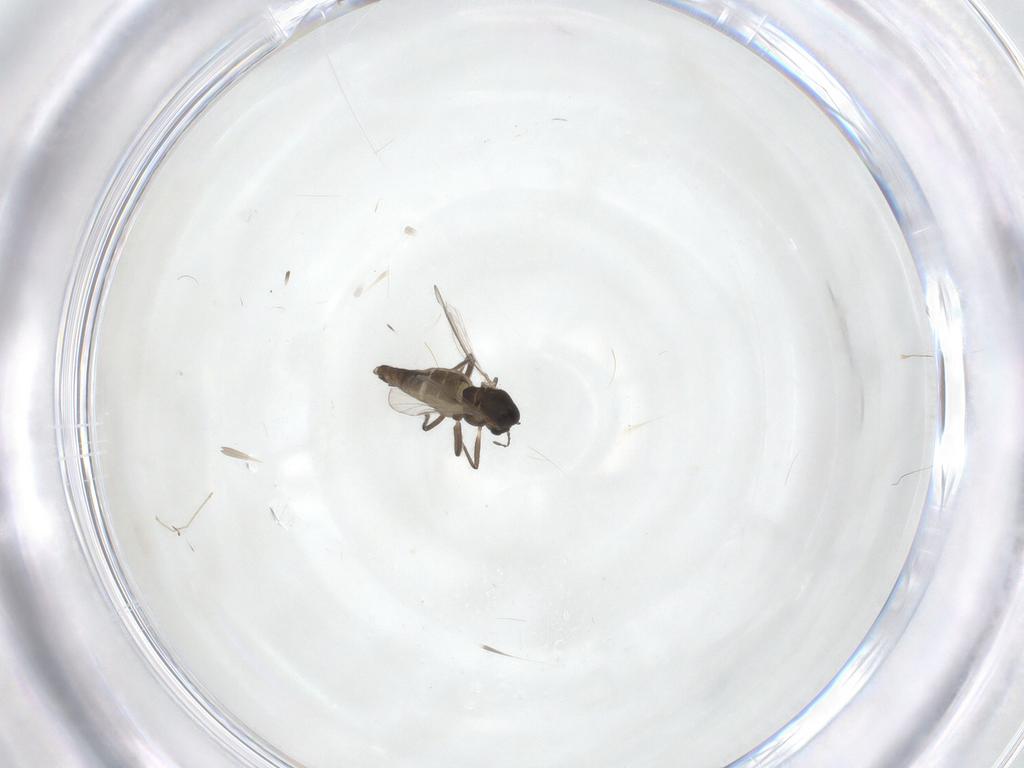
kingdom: Animalia
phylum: Arthropoda
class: Insecta
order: Diptera
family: Chironomidae
